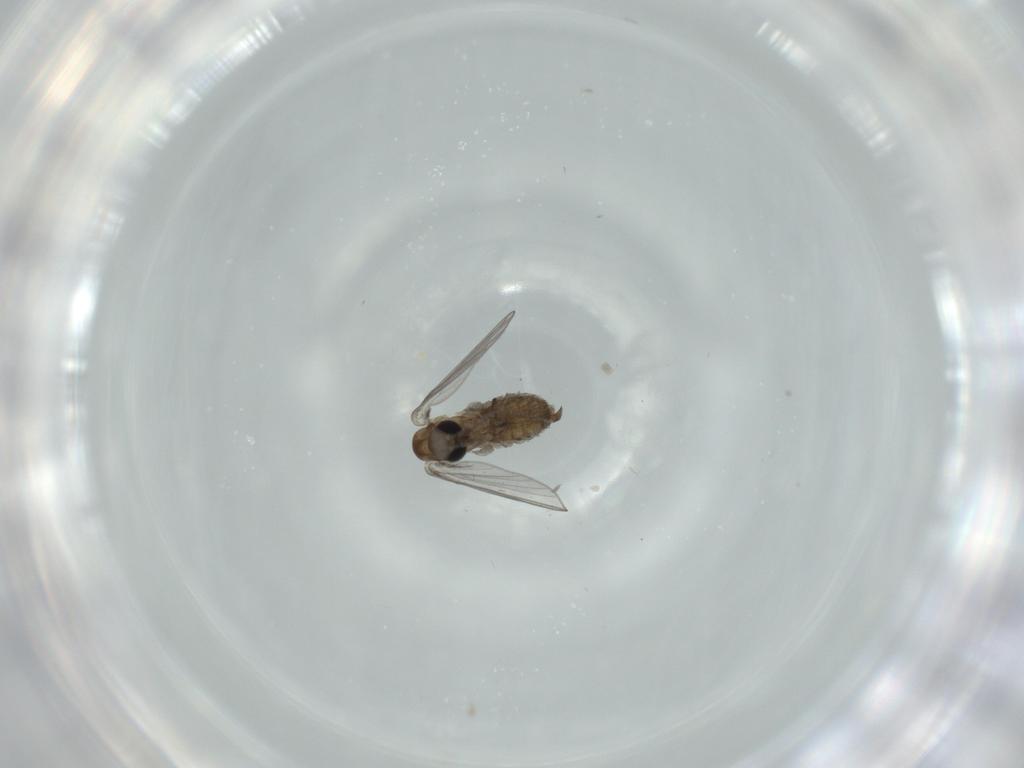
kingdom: Animalia
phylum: Arthropoda
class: Insecta
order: Diptera
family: Psychodidae
